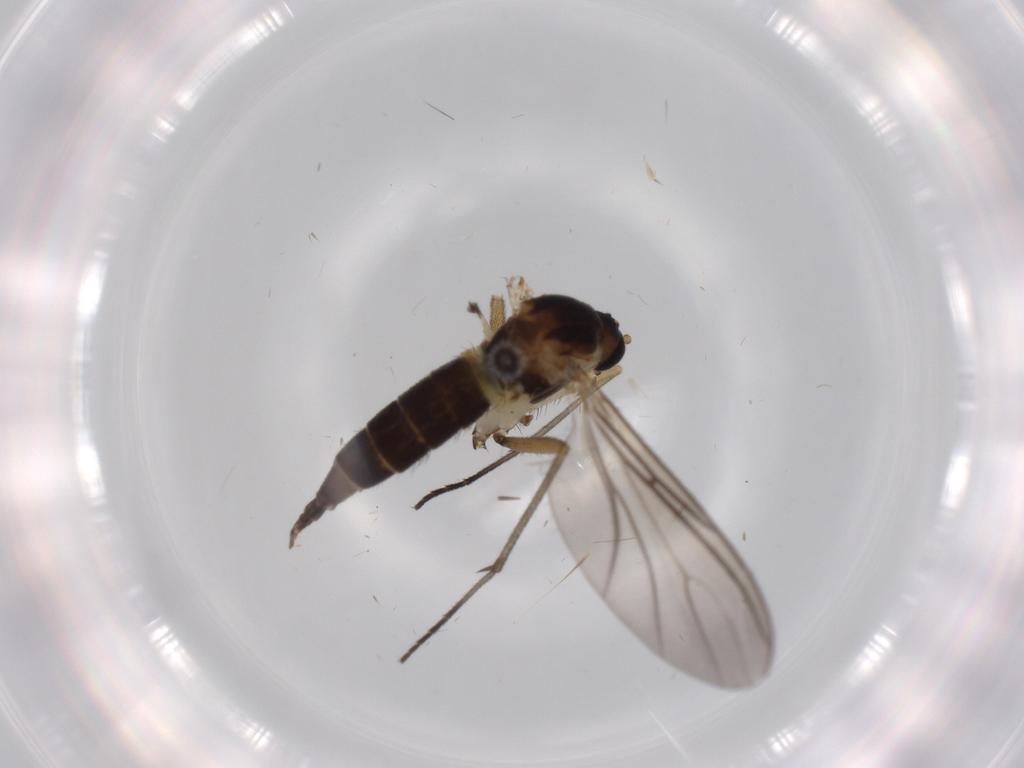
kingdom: Animalia
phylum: Arthropoda
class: Insecta
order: Diptera
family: Sciaridae
